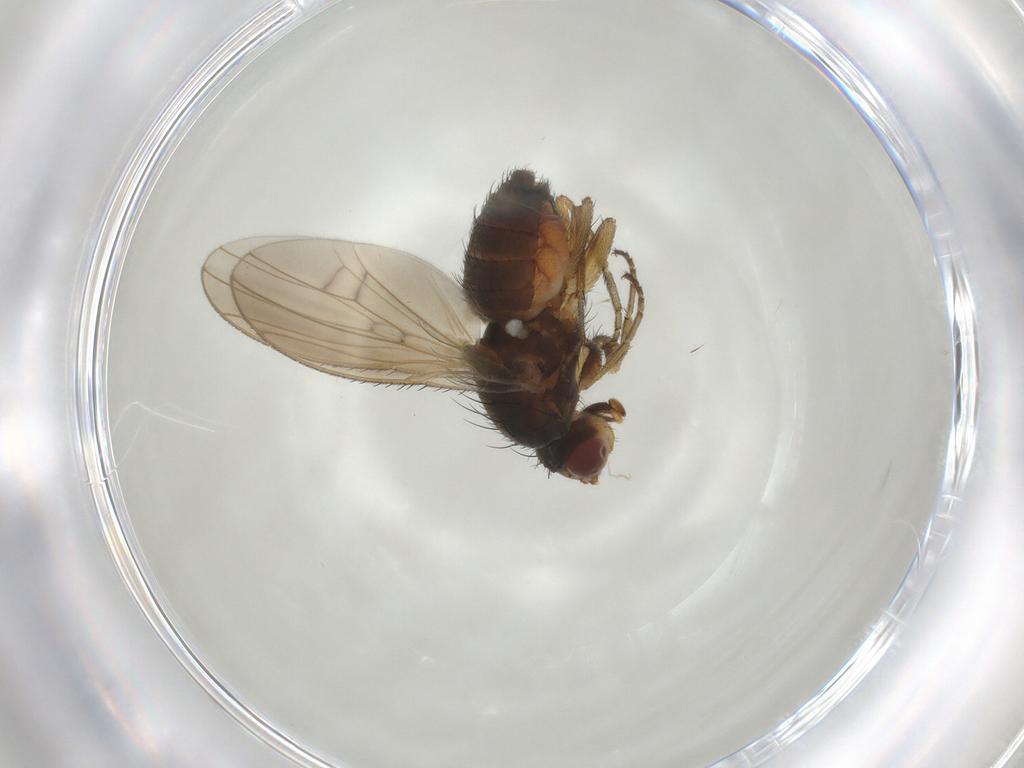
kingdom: Animalia
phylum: Arthropoda
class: Insecta
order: Diptera
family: Heleomyzidae
